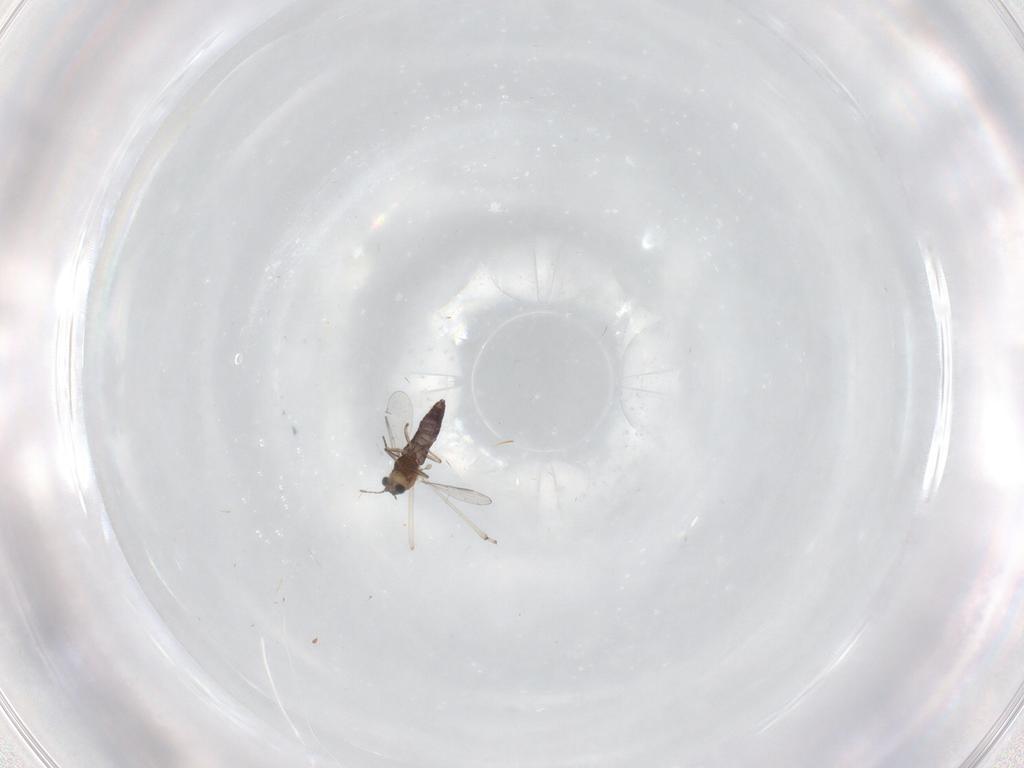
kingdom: Animalia
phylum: Arthropoda
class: Insecta
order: Diptera
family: Chironomidae
